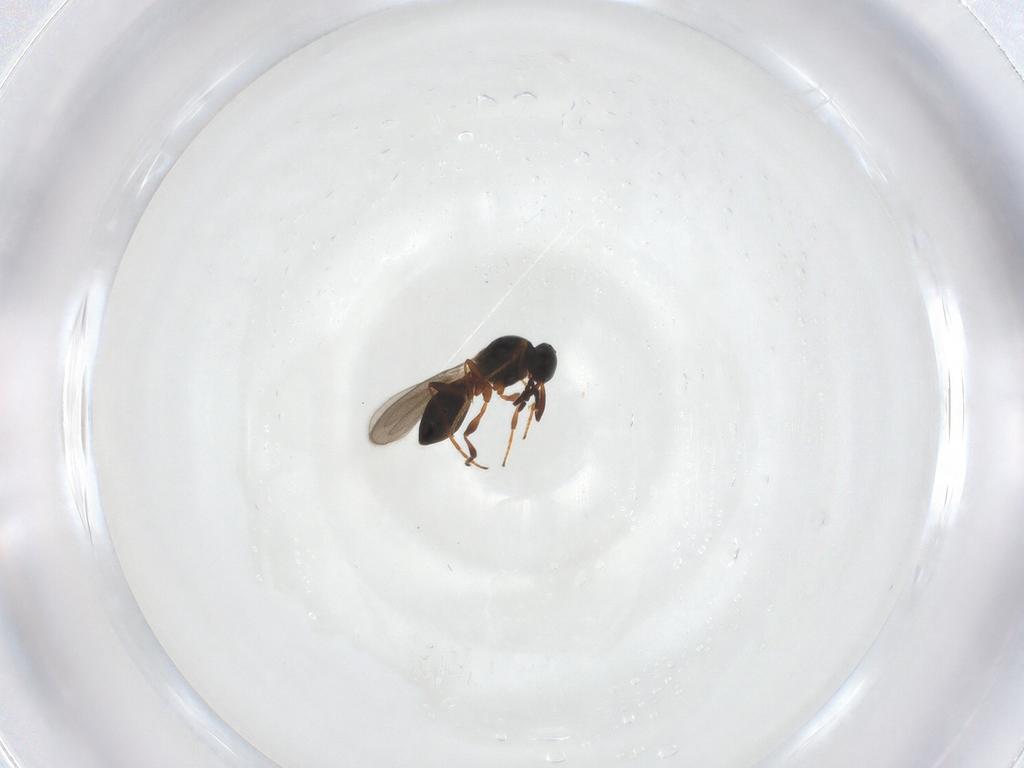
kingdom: Animalia
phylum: Arthropoda
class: Insecta
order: Hymenoptera
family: Platygastridae
